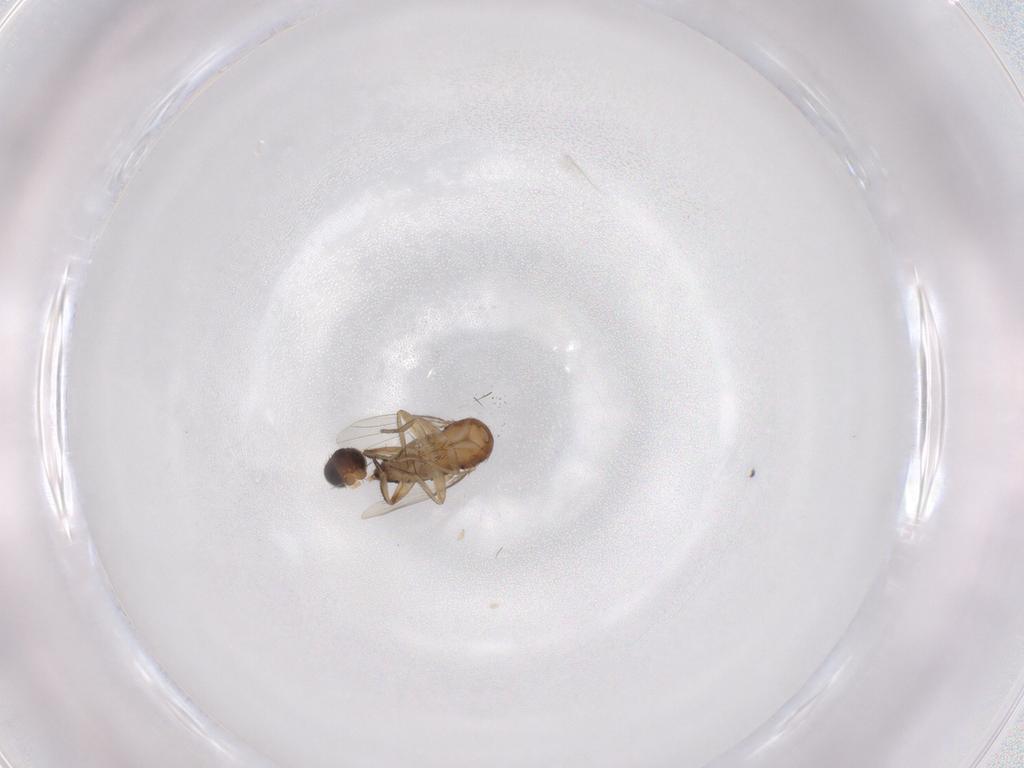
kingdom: Animalia
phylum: Arthropoda
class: Insecta
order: Diptera
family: Phoridae
